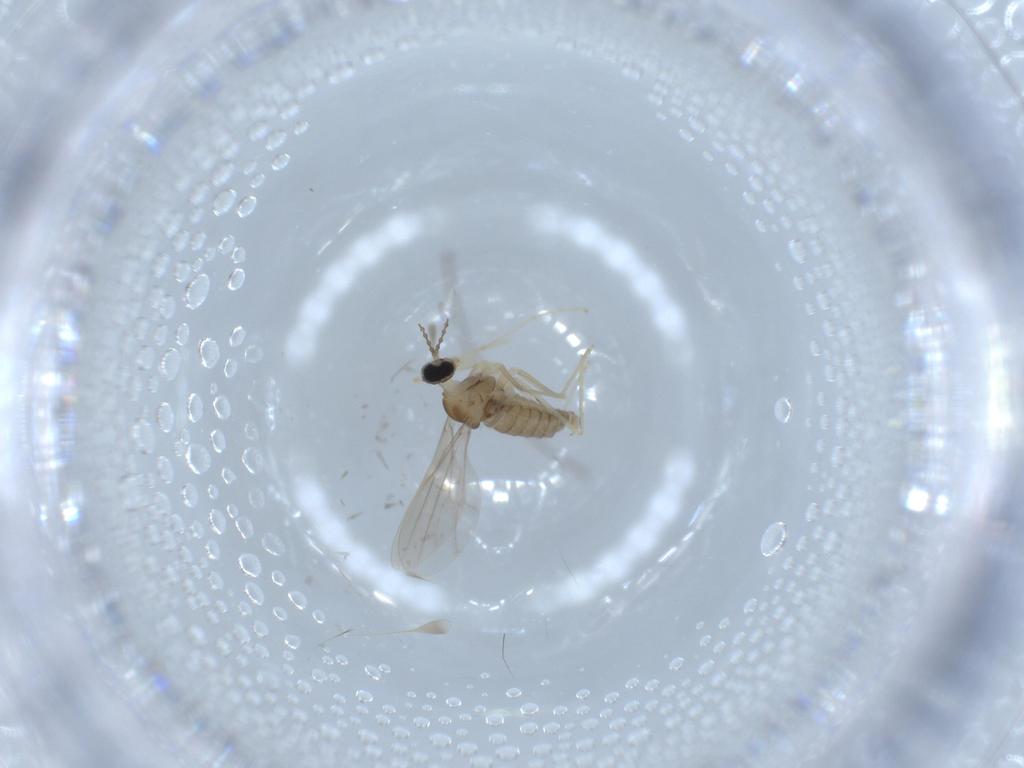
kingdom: Animalia
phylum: Arthropoda
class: Insecta
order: Diptera
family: Cecidomyiidae
